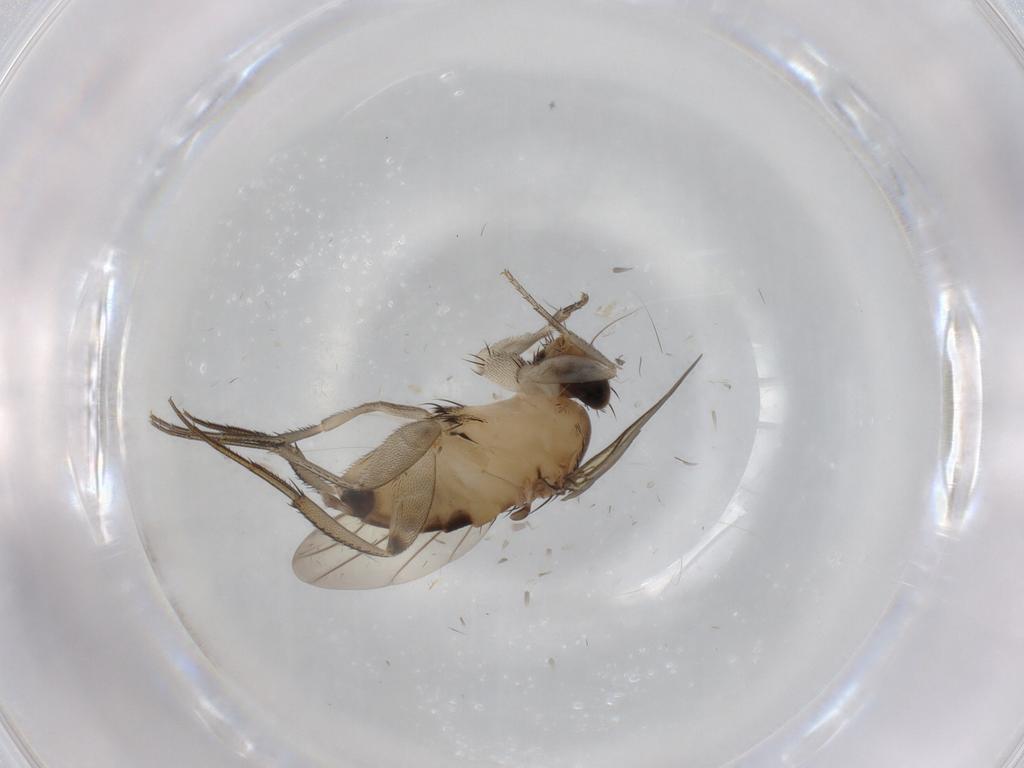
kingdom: Animalia
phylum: Arthropoda
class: Insecta
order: Diptera
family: Phoridae
